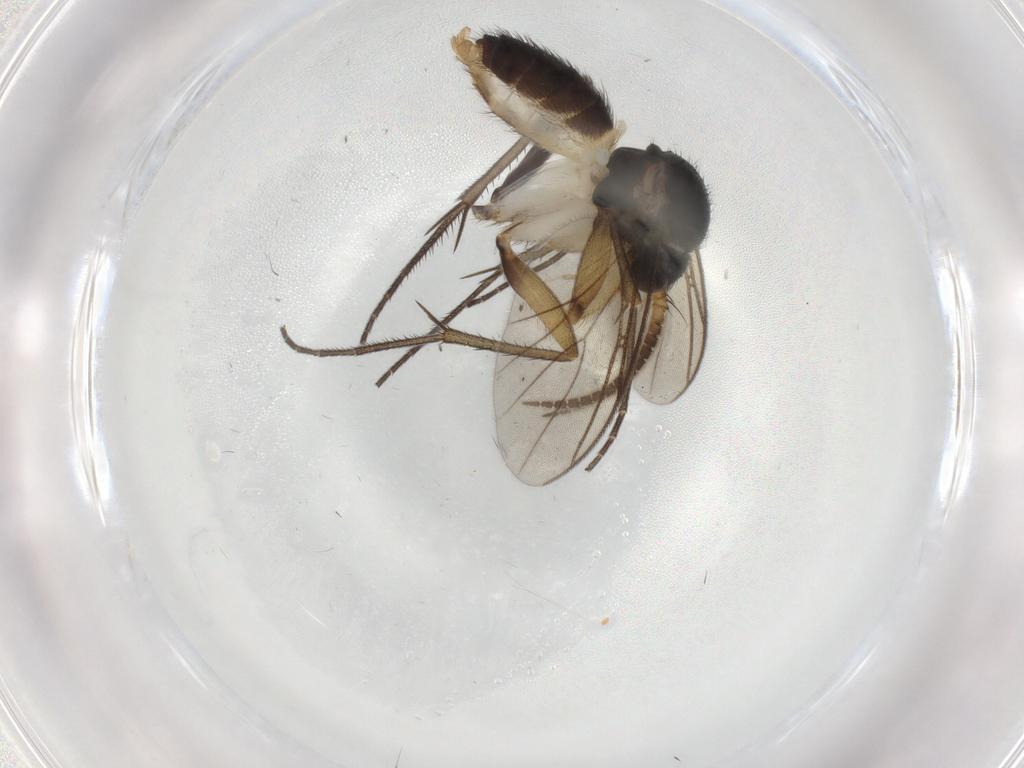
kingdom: Animalia
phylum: Arthropoda
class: Insecta
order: Diptera
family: Mycetophilidae
